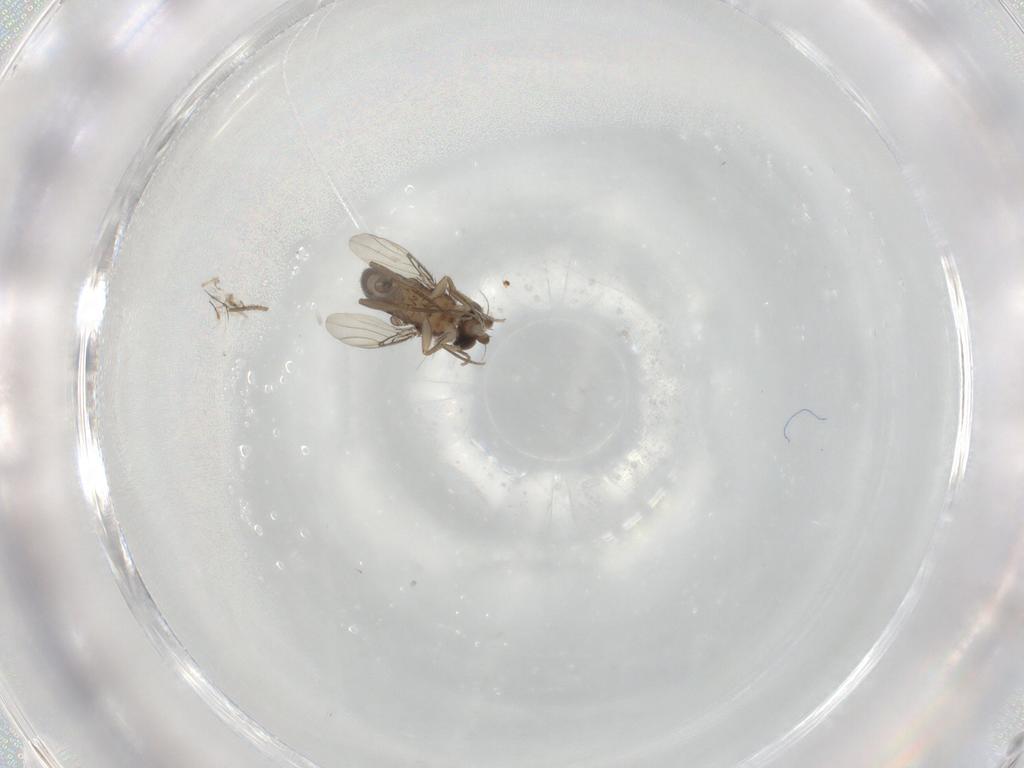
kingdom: Animalia
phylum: Arthropoda
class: Insecta
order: Diptera
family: Phoridae
